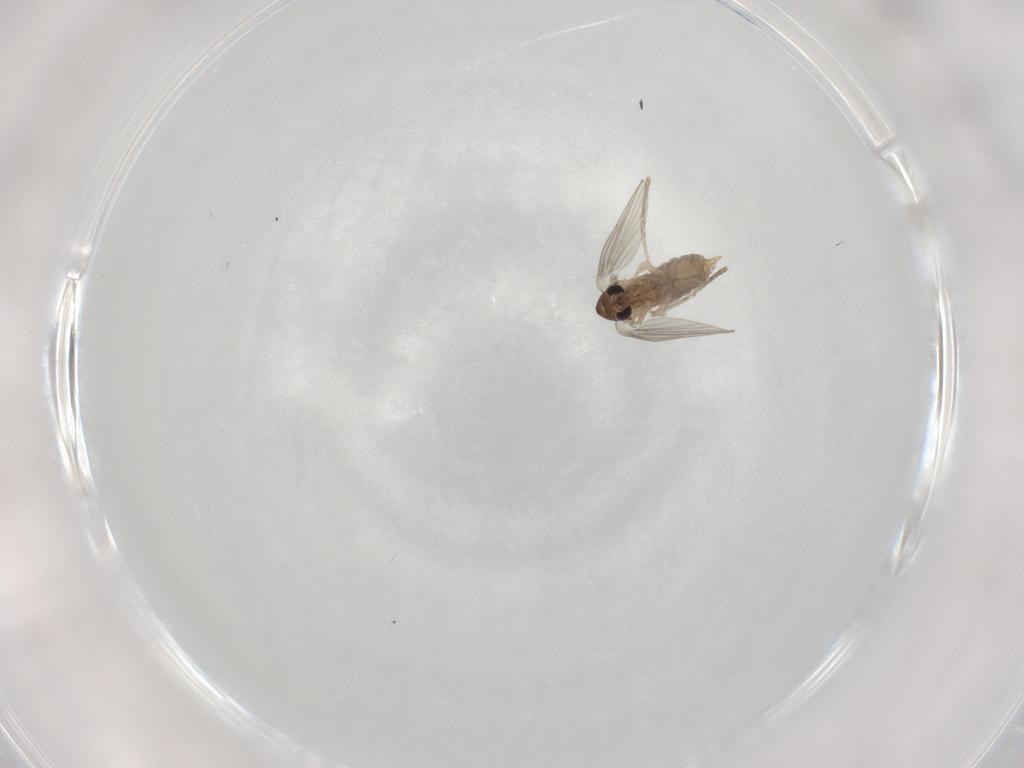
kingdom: Animalia
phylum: Arthropoda
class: Insecta
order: Diptera
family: Psychodidae
